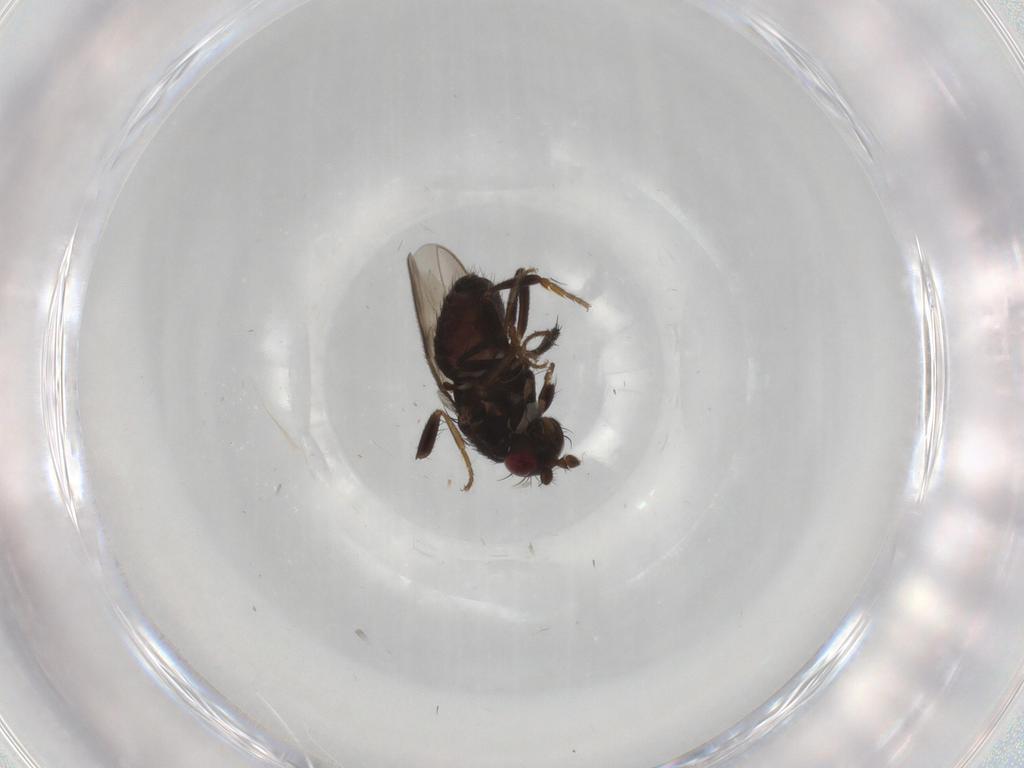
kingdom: Animalia
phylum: Arthropoda
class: Insecta
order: Diptera
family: Sphaeroceridae
